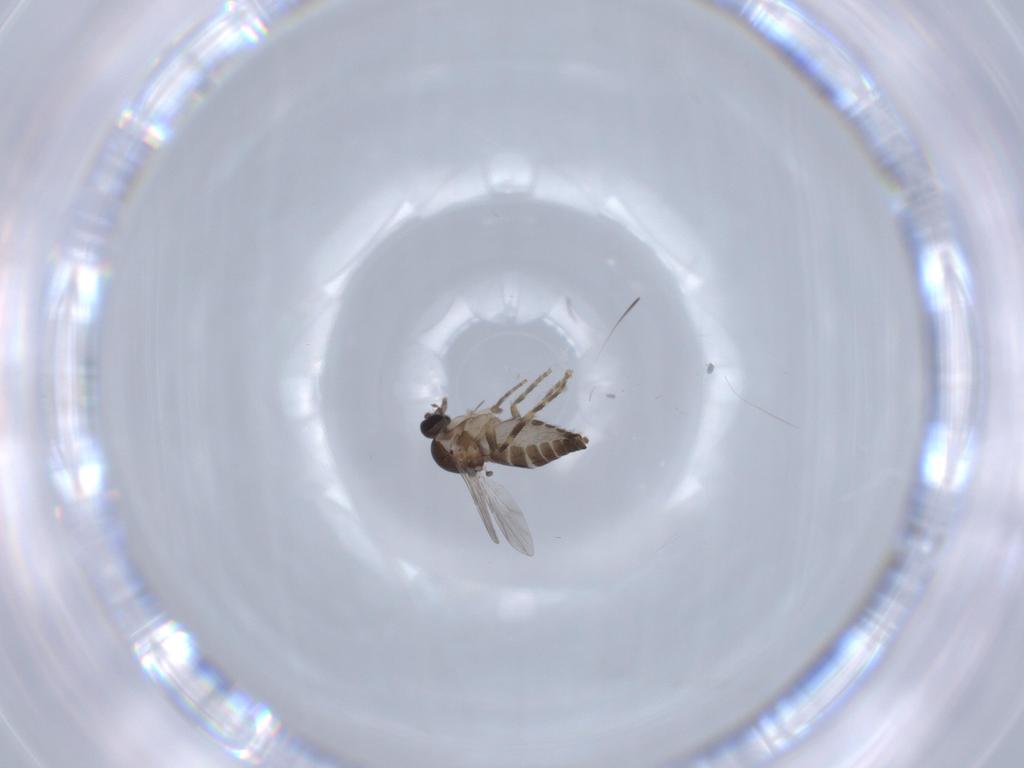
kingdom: Animalia
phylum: Arthropoda
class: Insecta
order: Diptera
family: Ceratopogonidae
